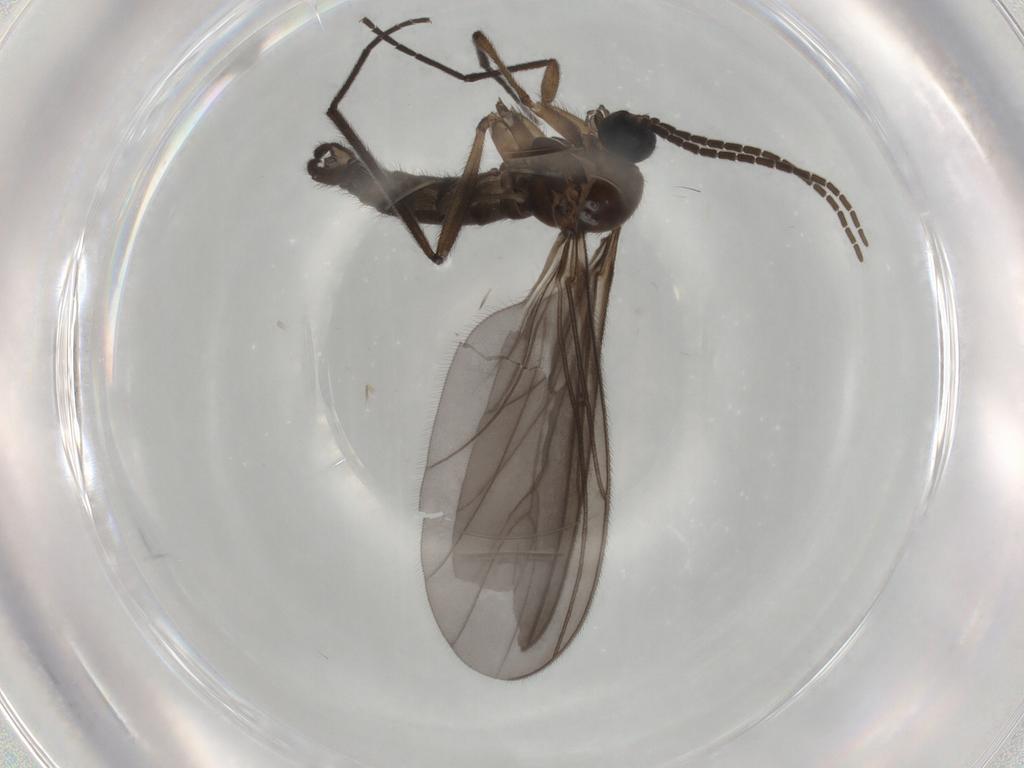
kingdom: Animalia
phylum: Arthropoda
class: Insecta
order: Diptera
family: Sciaridae
